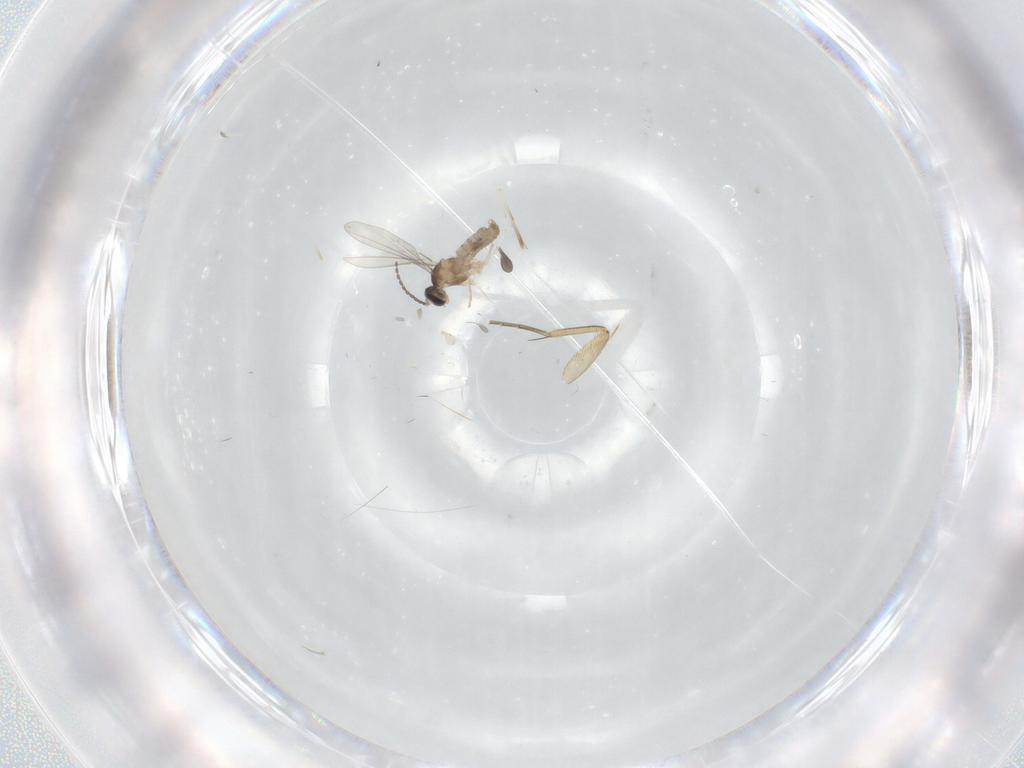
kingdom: Animalia
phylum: Arthropoda
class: Insecta
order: Diptera
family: Cecidomyiidae
